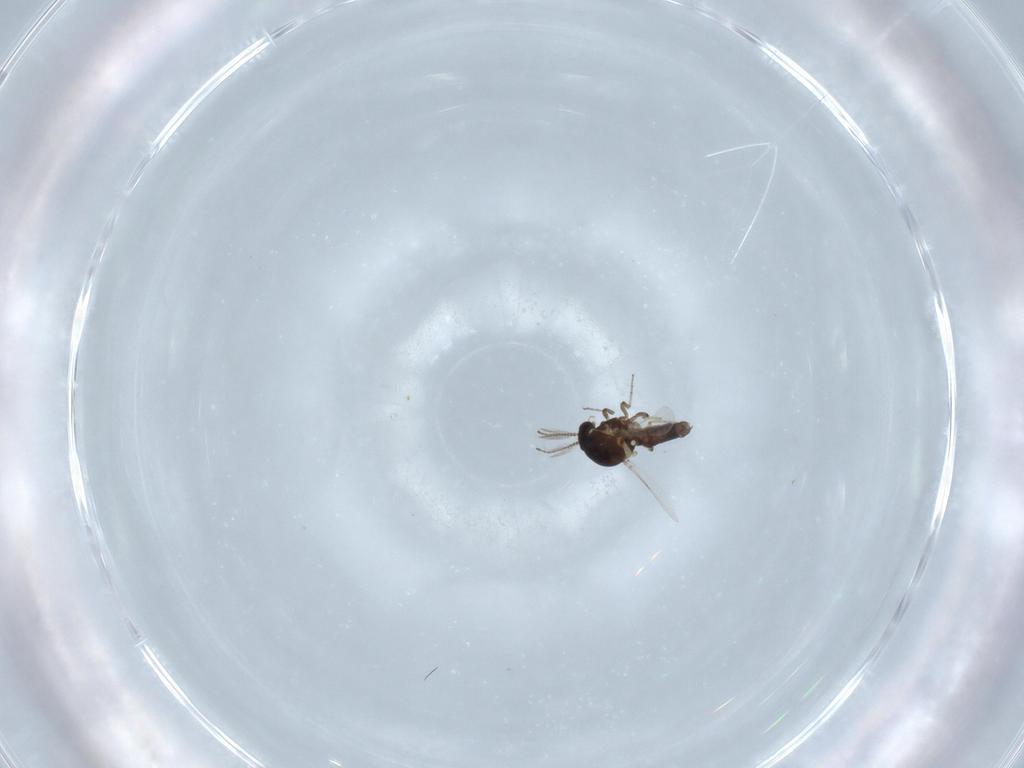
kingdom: Animalia
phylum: Arthropoda
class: Insecta
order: Diptera
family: Ceratopogonidae
